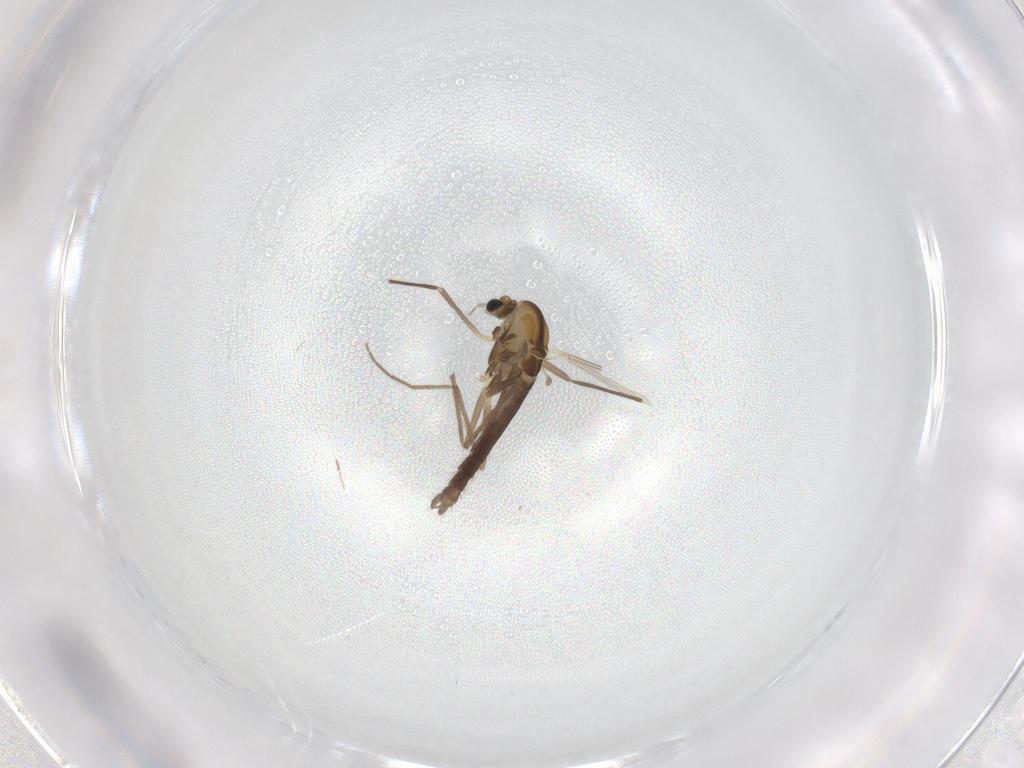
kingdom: Animalia
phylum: Arthropoda
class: Insecta
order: Diptera
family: Chironomidae
